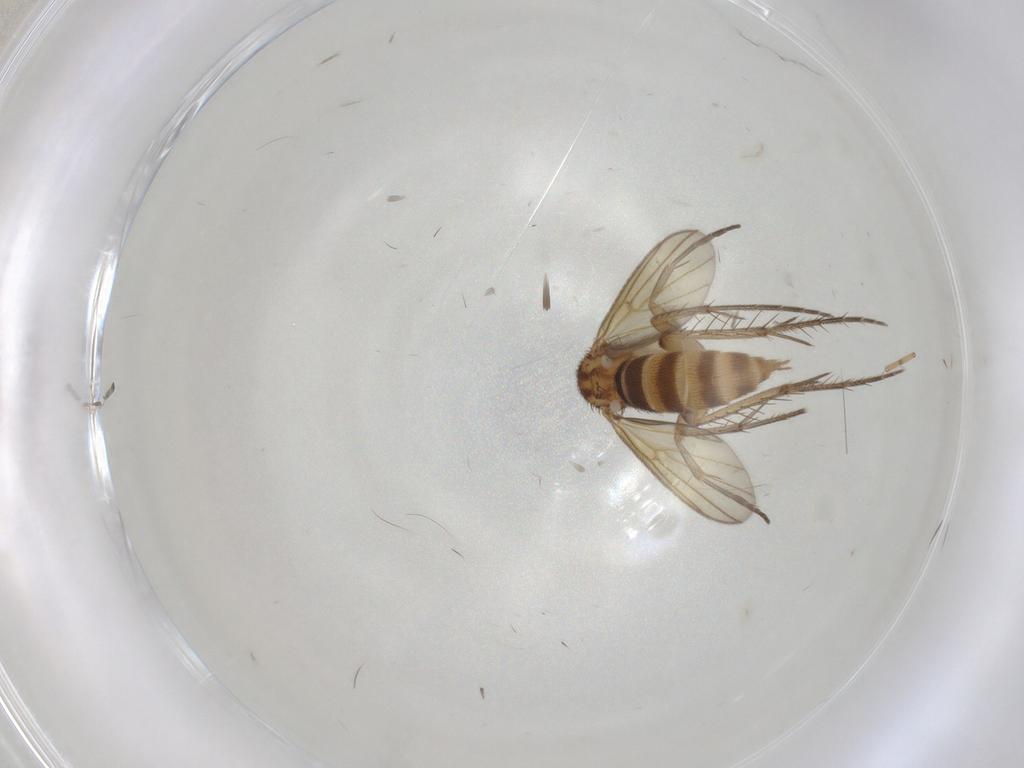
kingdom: Animalia
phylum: Arthropoda
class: Insecta
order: Diptera
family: Mycetophilidae
